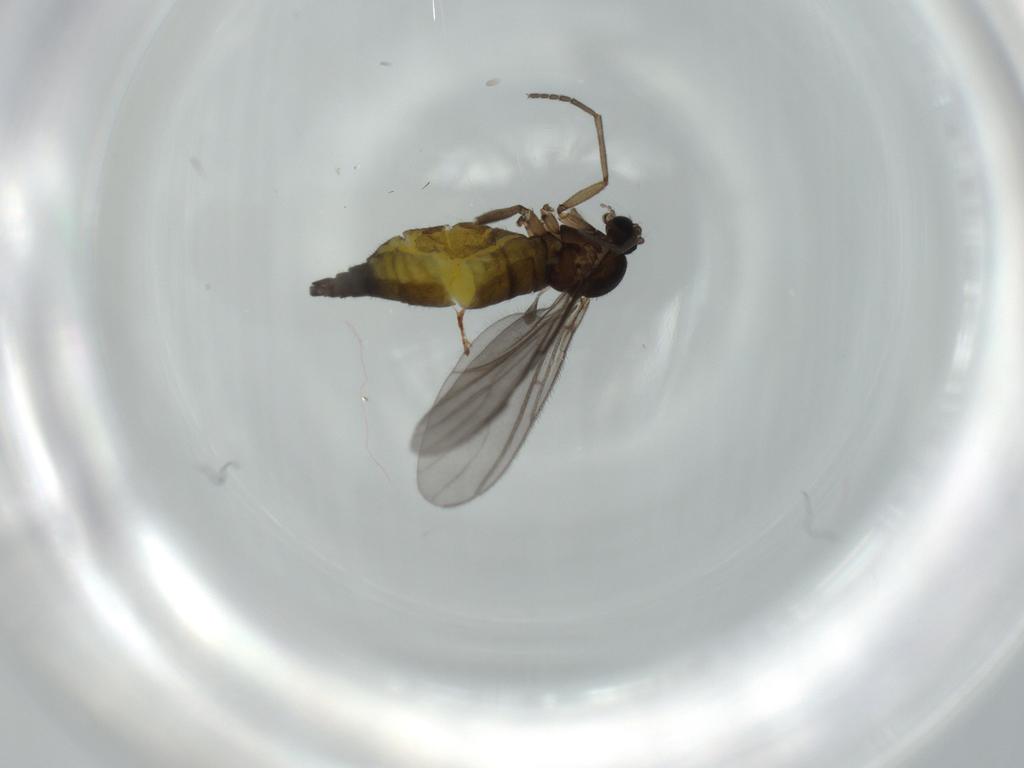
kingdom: Animalia
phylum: Arthropoda
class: Insecta
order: Diptera
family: Sciaridae
